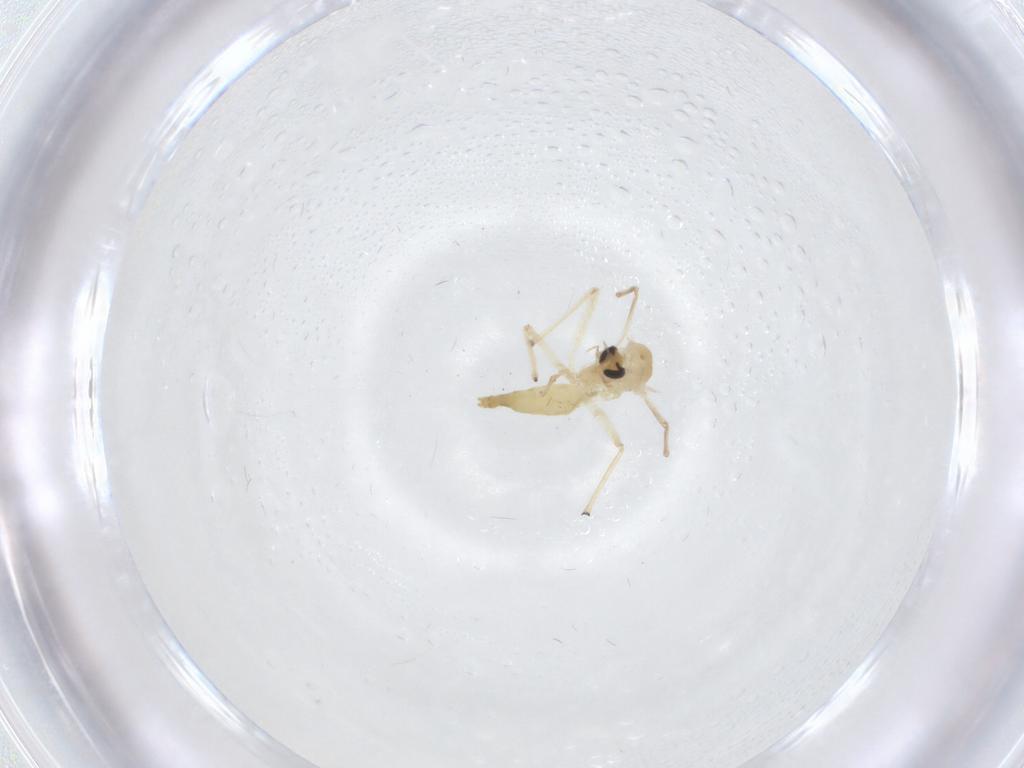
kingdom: Animalia
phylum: Arthropoda
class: Insecta
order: Diptera
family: Chironomidae
